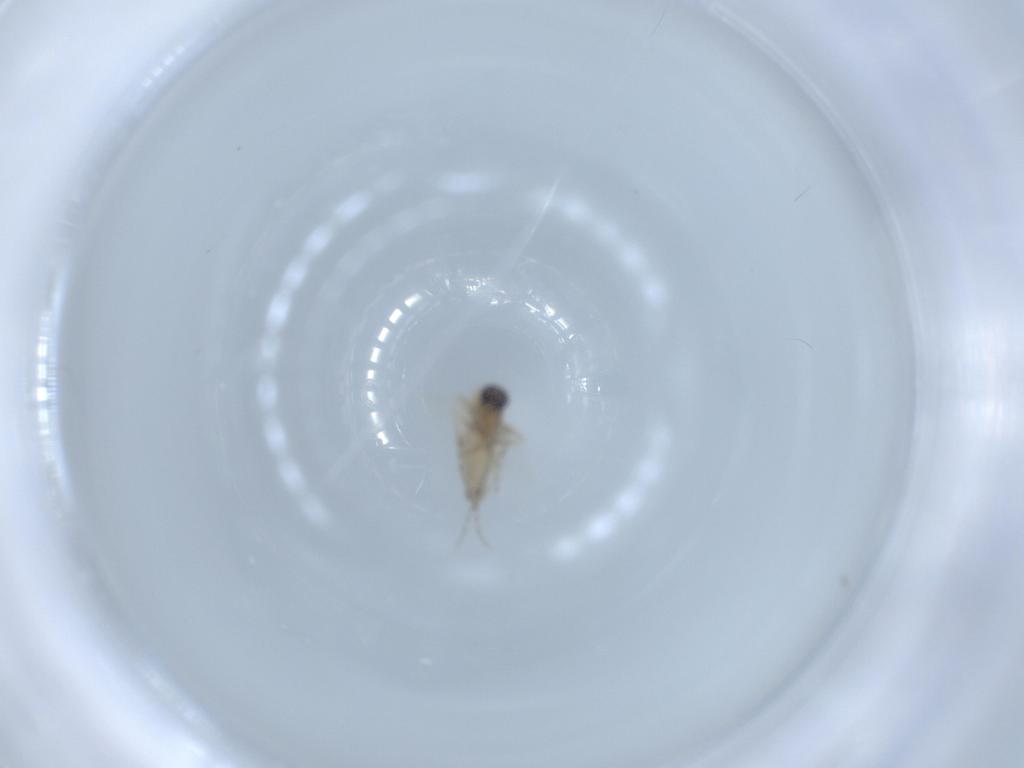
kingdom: Animalia
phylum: Arthropoda
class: Insecta
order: Diptera
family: Ceratopogonidae
